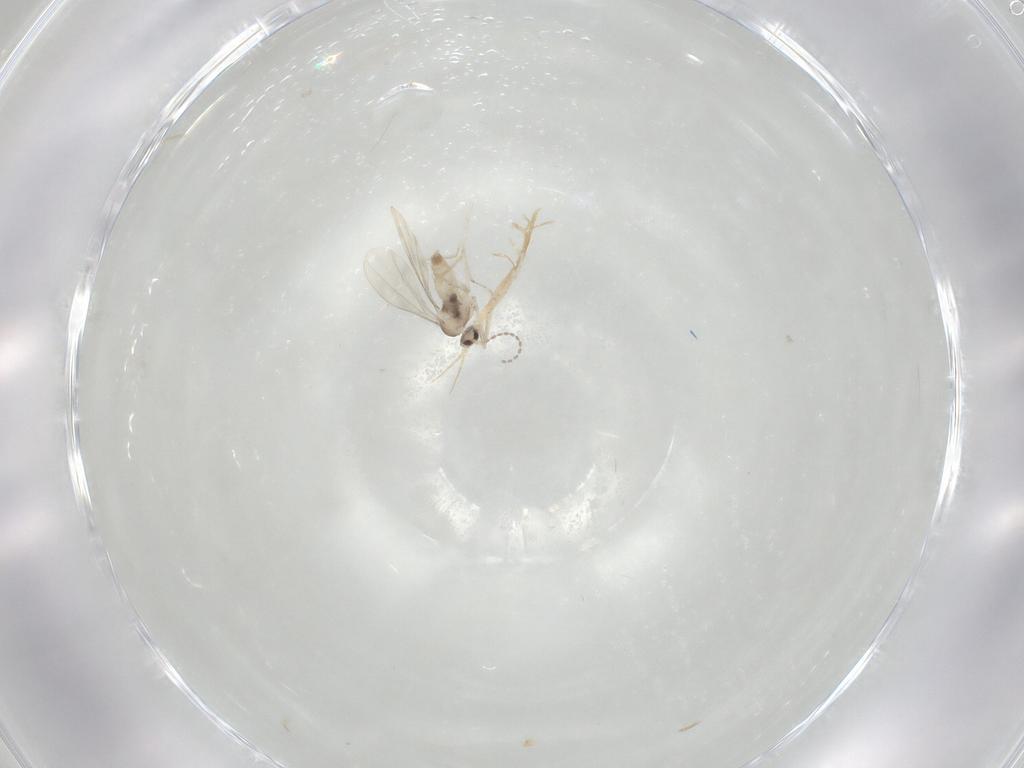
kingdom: Animalia
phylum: Arthropoda
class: Insecta
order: Diptera
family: Cecidomyiidae
